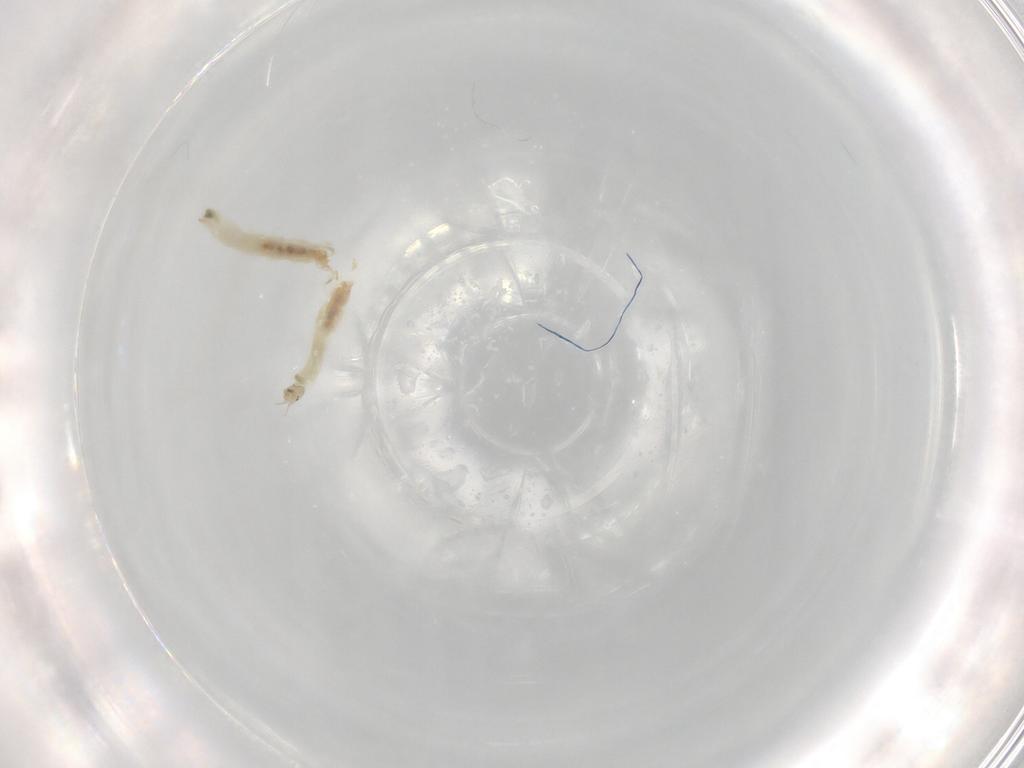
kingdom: Animalia
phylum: Arthropoda
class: Insecta
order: Diptera
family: Chironomidae
